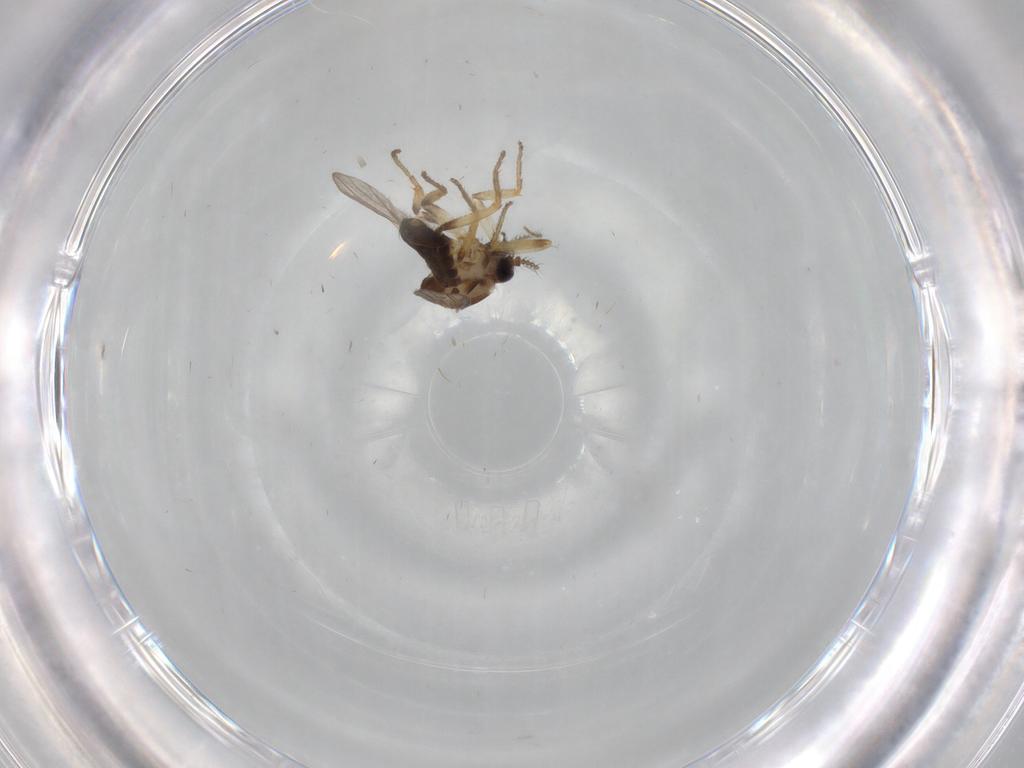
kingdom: Animalia
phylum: Arthropoda
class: Insecta
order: Diptera
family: Ceratopogonidae
